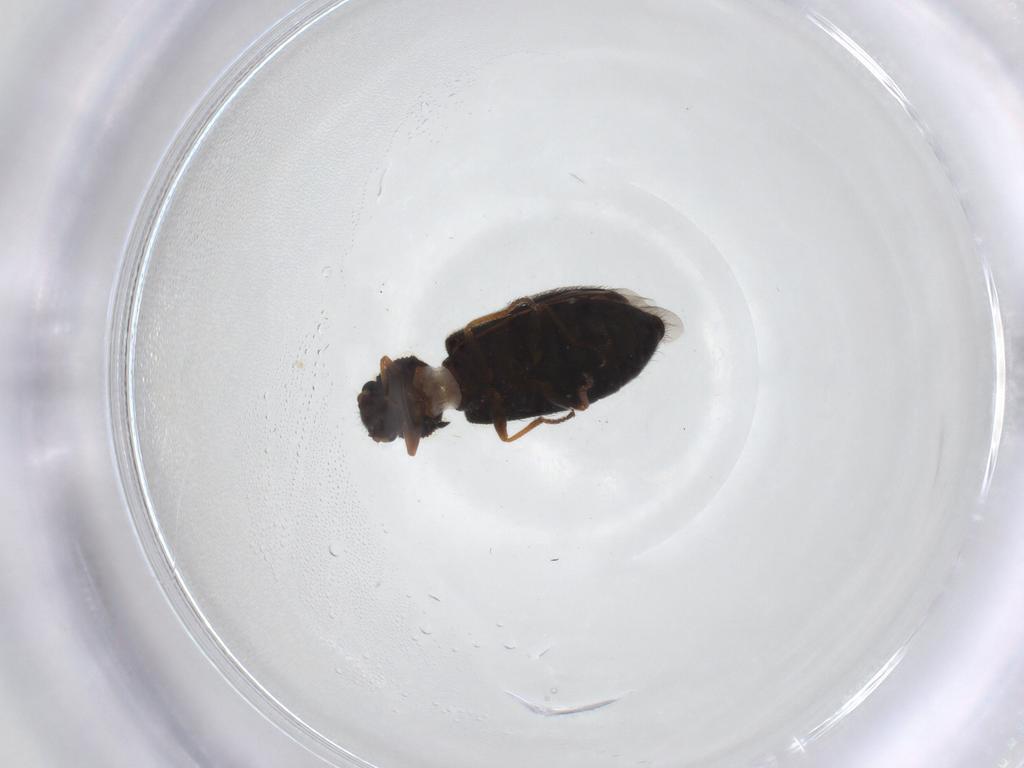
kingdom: Animalia
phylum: Arthropoda
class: Insecta
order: Coleoptera
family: Melyridae
